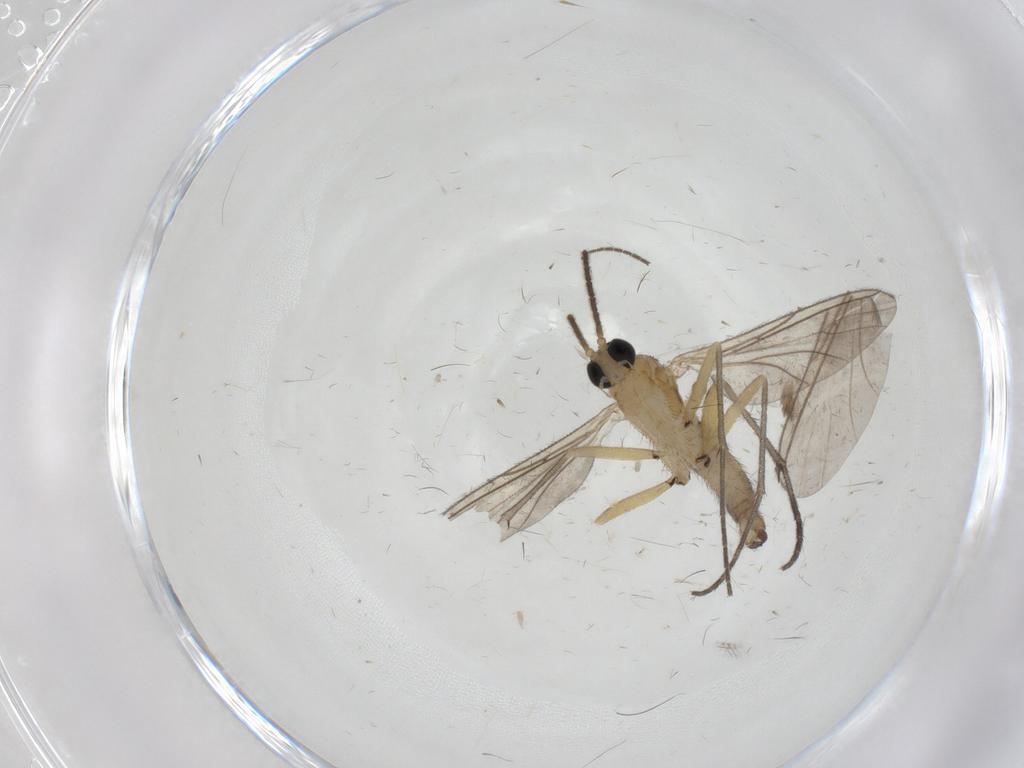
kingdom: Animalia
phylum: Arthropoda
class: Insecta
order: Diptera
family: Sciaridae
